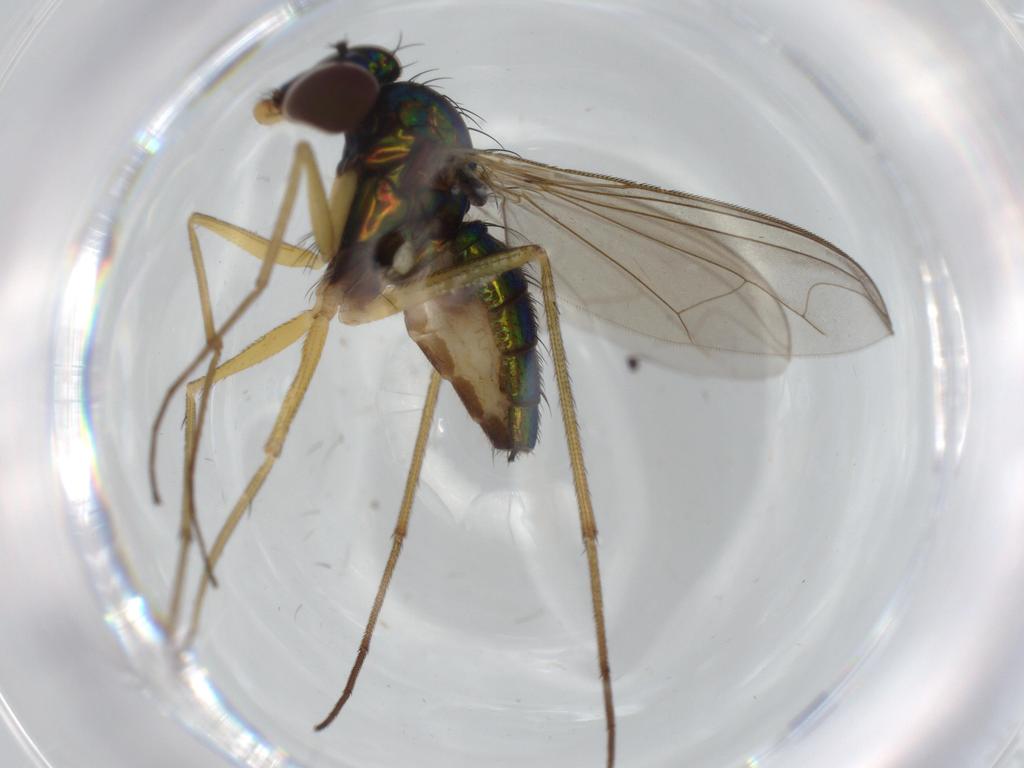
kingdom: Animalia
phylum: Arthropoda
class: Insecta
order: Diptera
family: Dolichopodidae
